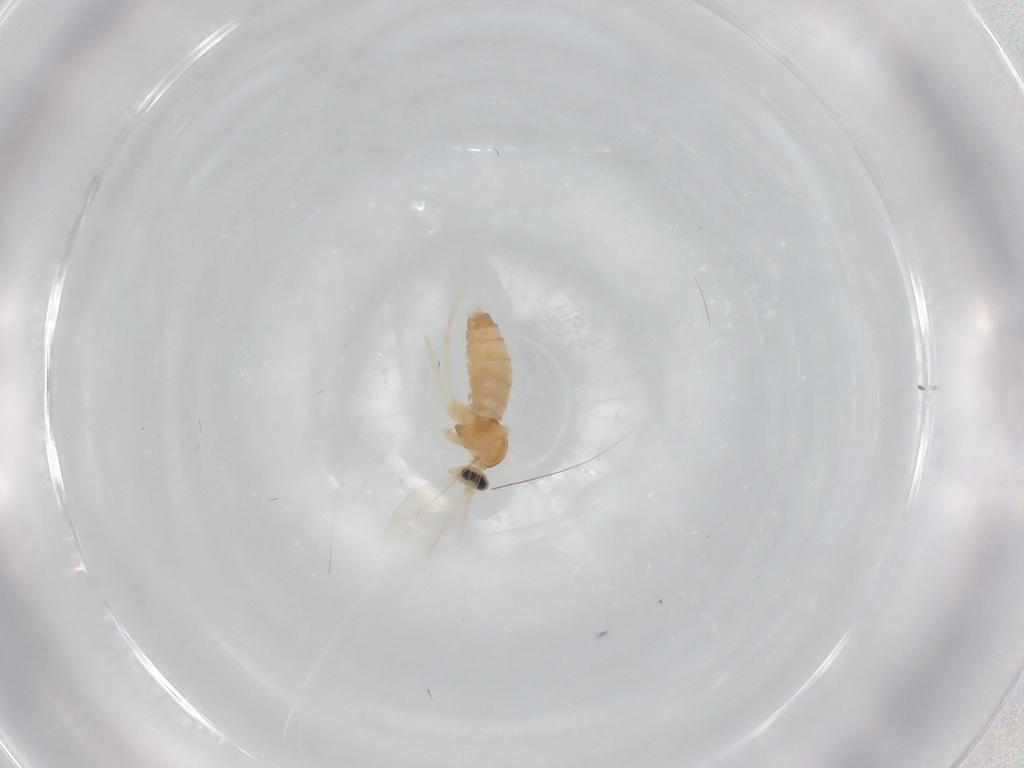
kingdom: Animalia
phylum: Arthropoda
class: Insecta
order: Diptera
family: Cecidomyiidae
